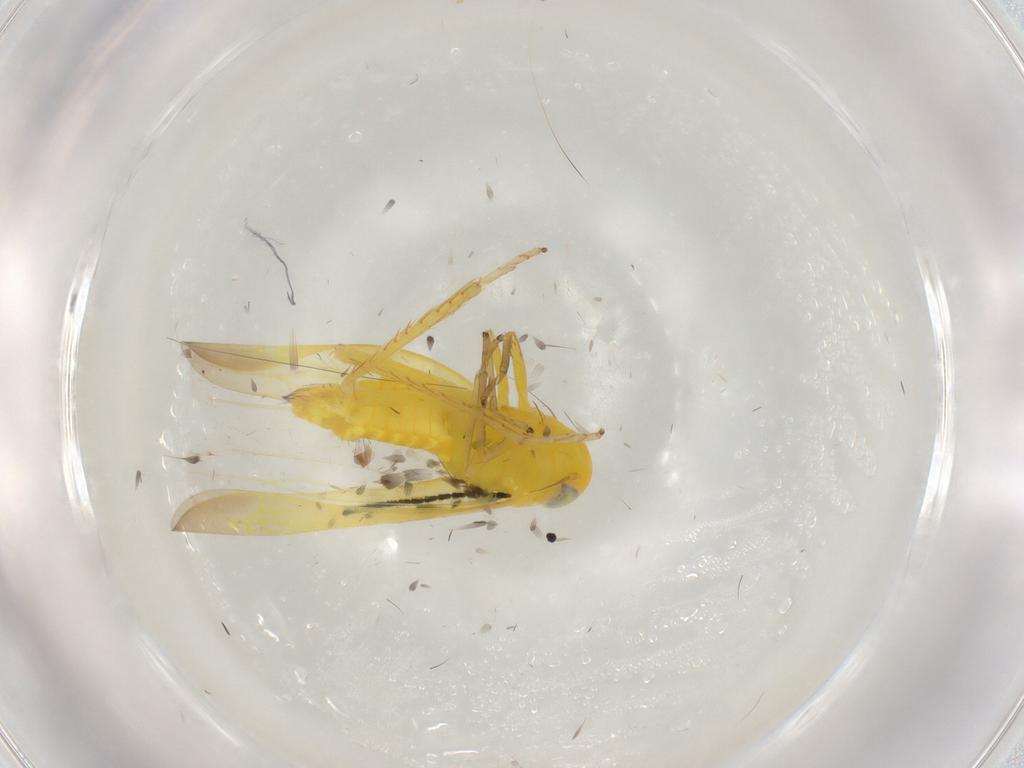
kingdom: Animalia
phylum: Arthropoda
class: Insecta
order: Hemiptera
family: Cicadellidae
